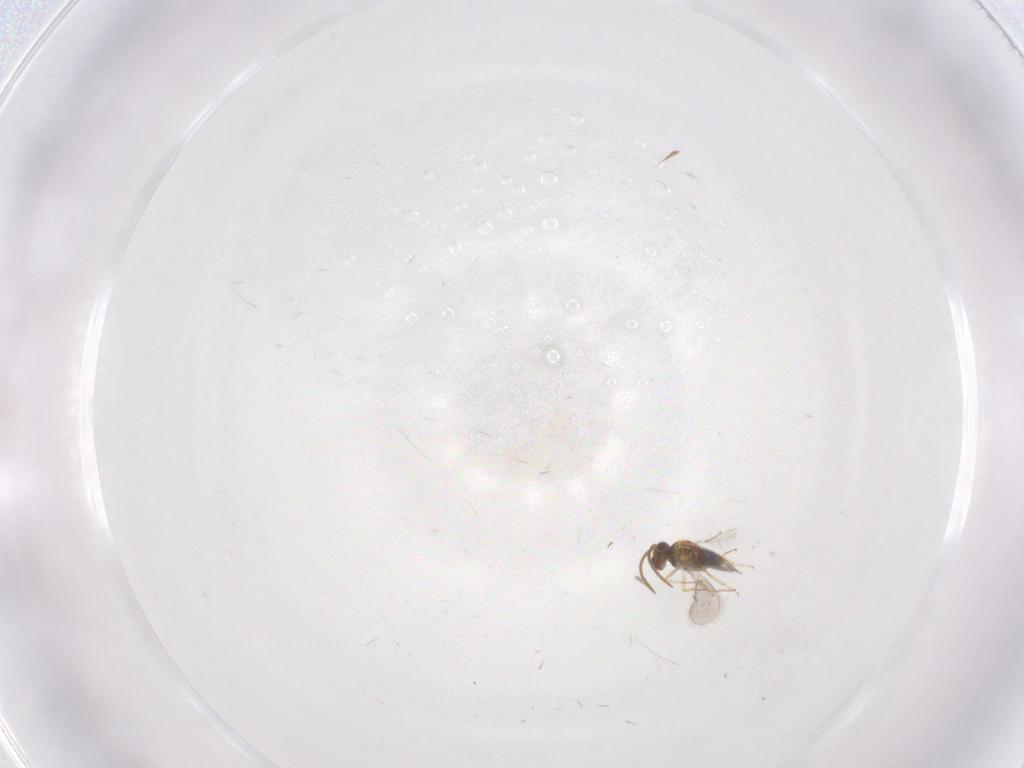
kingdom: Animalia
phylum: Arthropoda
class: Insecta
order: Hymenoptera
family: Aphelinidae
